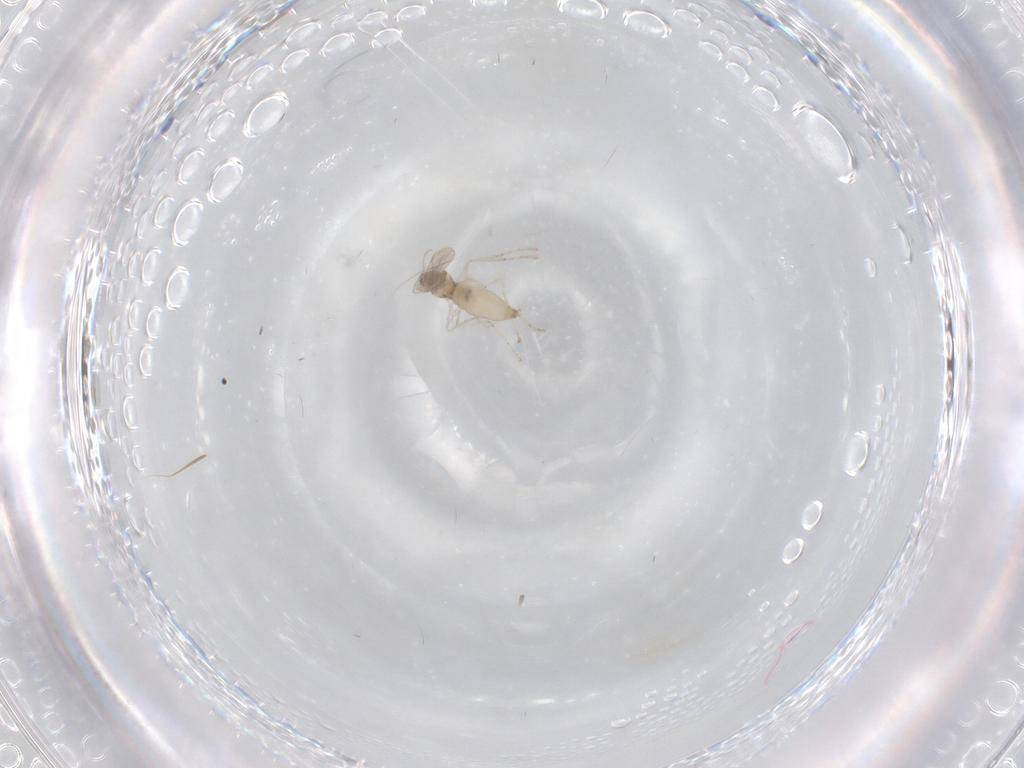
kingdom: Animalia
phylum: Arthropoda
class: Insecta
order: Diptera
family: Cecidomyiidae
